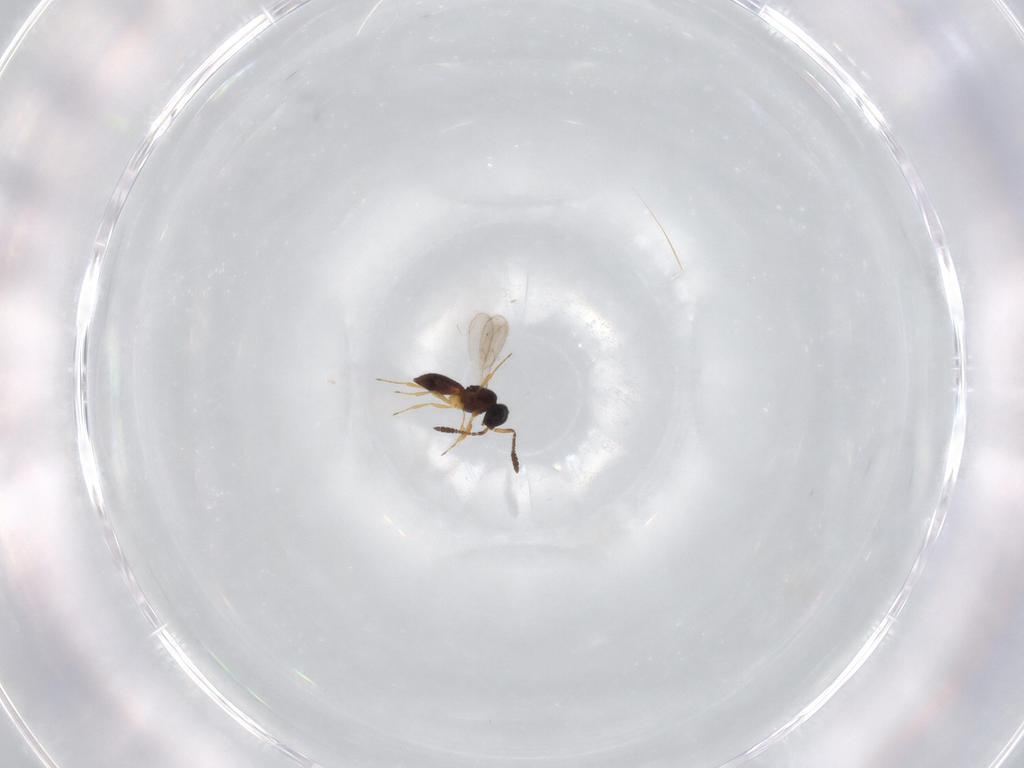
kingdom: Animalia
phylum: Arthropoda
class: Insecta
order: Hymenoptera
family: Scelionidae
